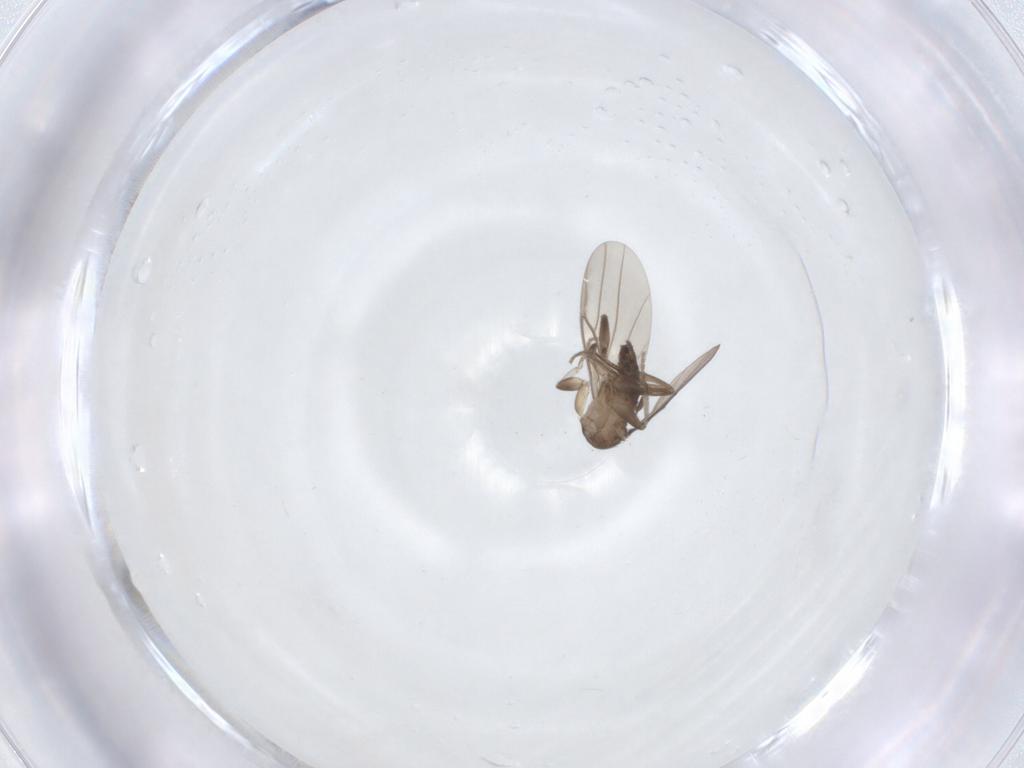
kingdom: Animalia
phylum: Arthropoda
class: Insecta
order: Diptera
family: Phoridae
